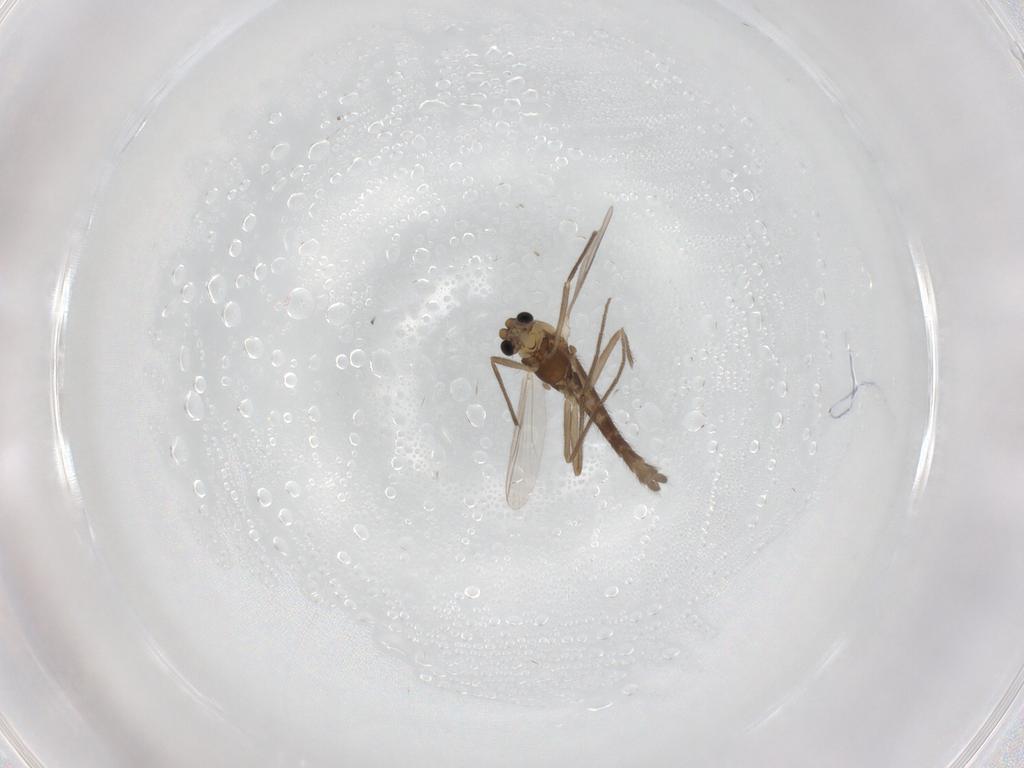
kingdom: Animalia
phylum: Arthropoda
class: Insecta
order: Diptera
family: Chironomidae
